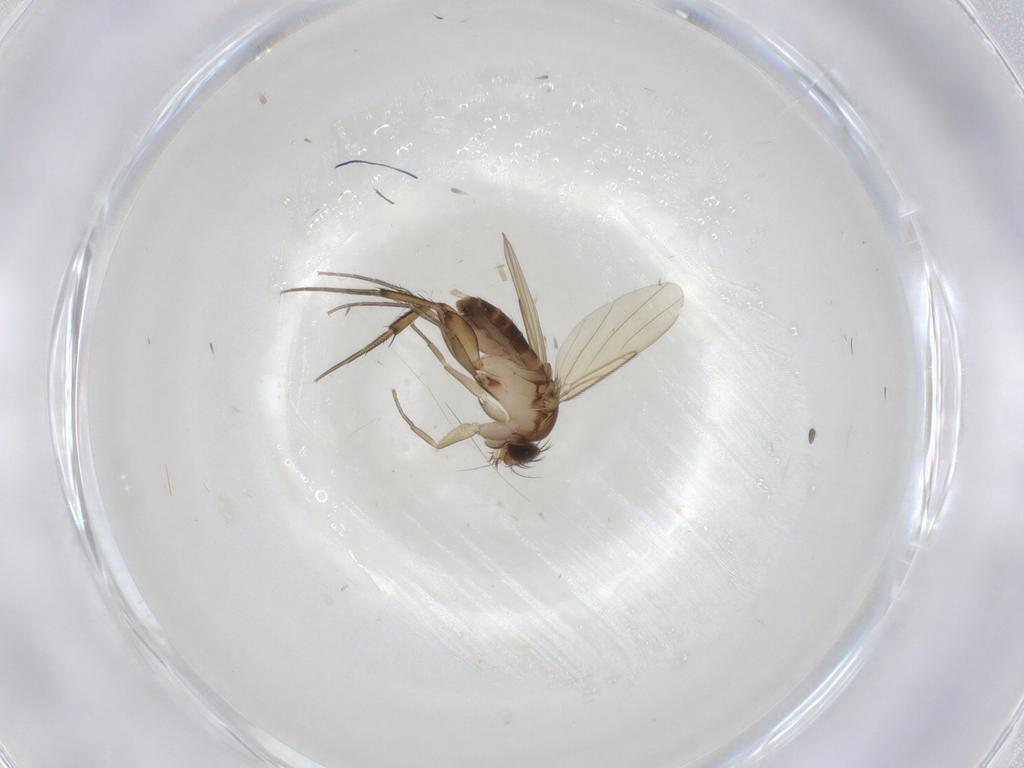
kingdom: Animalia
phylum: Arthropoda
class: Insecta
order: Diptera
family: Phoridae
